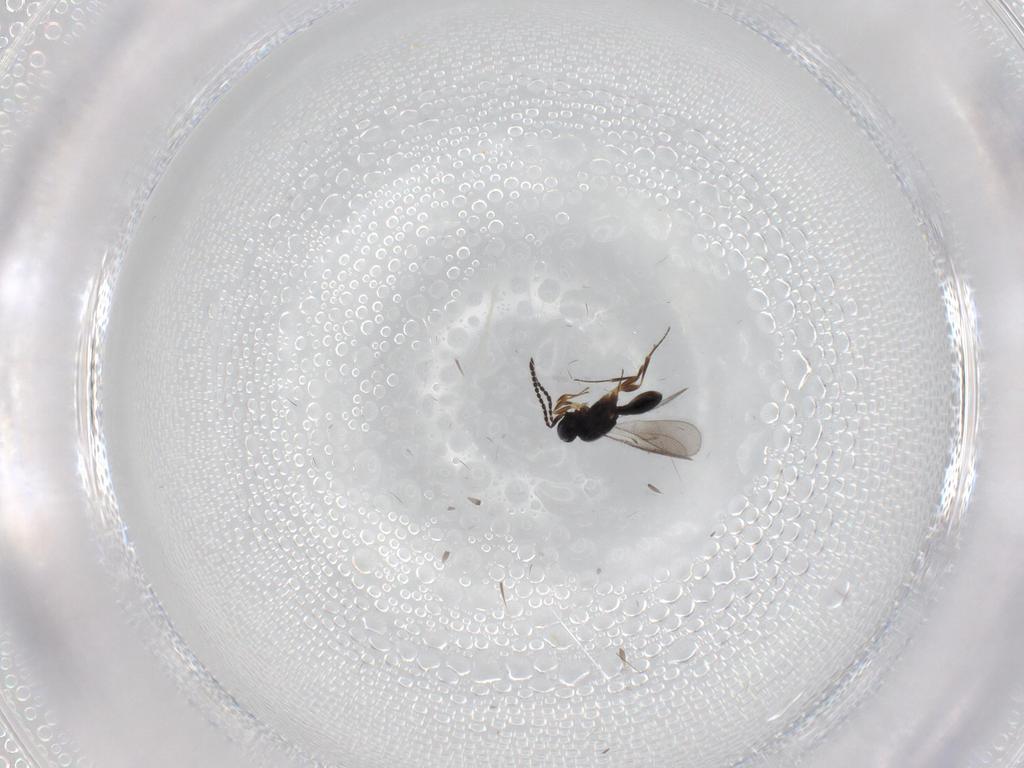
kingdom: Animalia
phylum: Arthropoda
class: Insecta
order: Hymenoptera
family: Scelionidae
